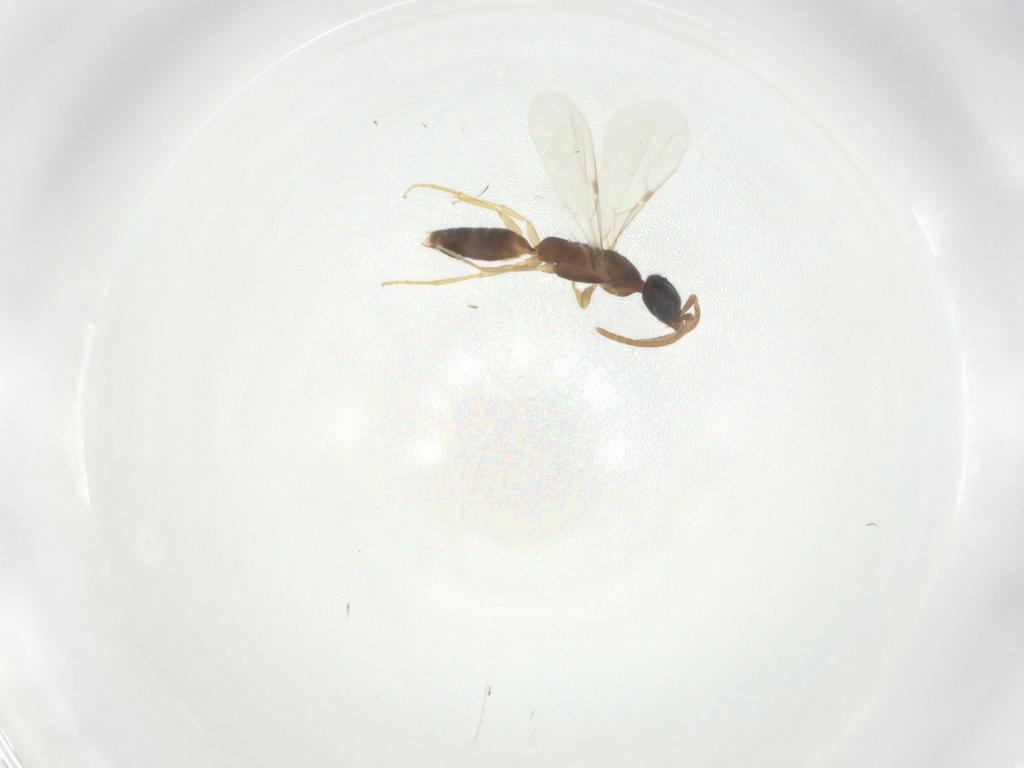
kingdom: Animalia
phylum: Arthropoda
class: Insecta
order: Hymenoptera
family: Bethylidae
